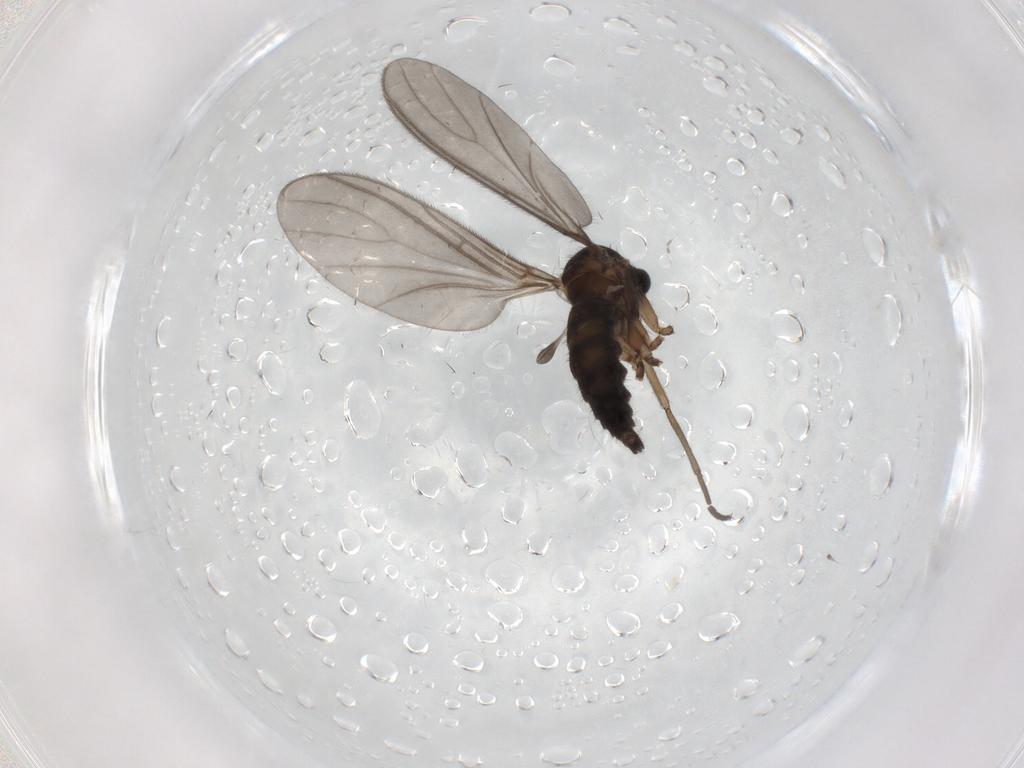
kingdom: Animalia
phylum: Arthropoda
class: Insecta
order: Diptera
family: Sciaridae
